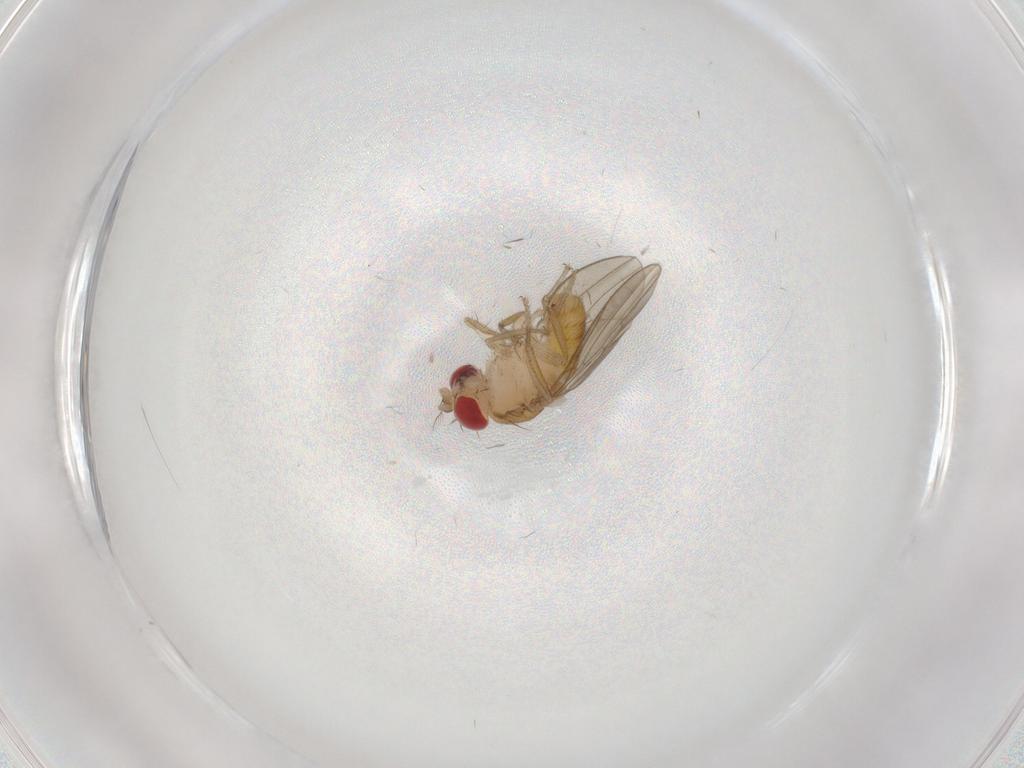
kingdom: Animalia
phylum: Arthropoda
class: Insecta
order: Diptera
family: Drosophilidae
